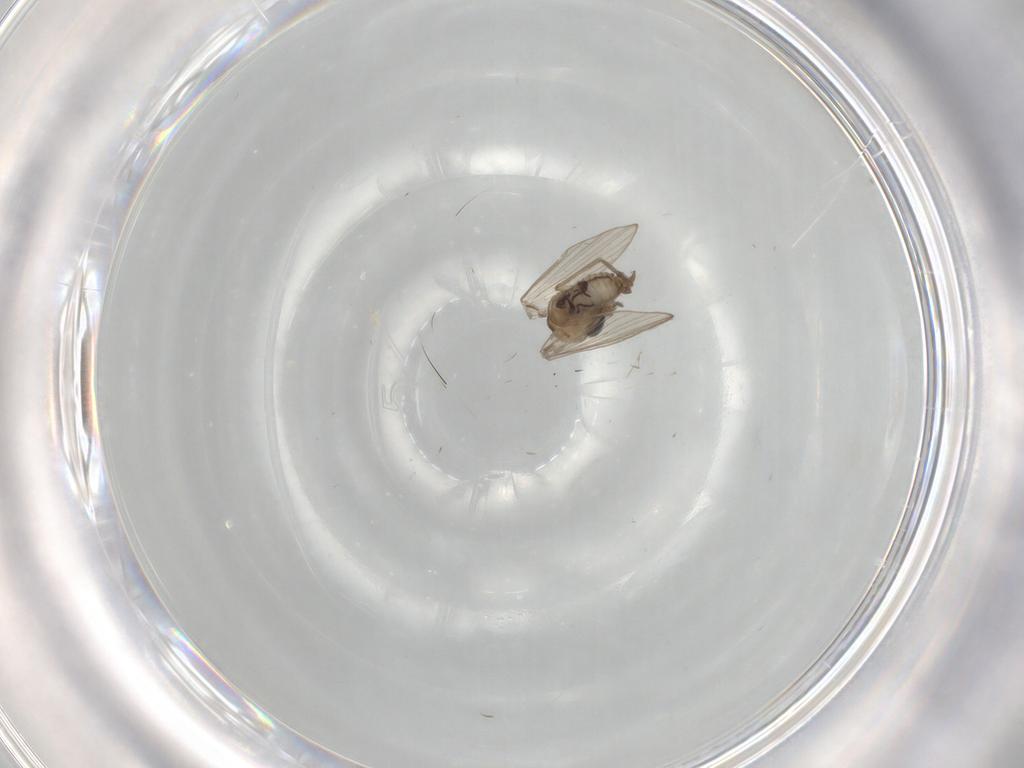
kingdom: Animalia
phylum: Arthropoda
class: Insecta
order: Diptera
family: Psychodidae
